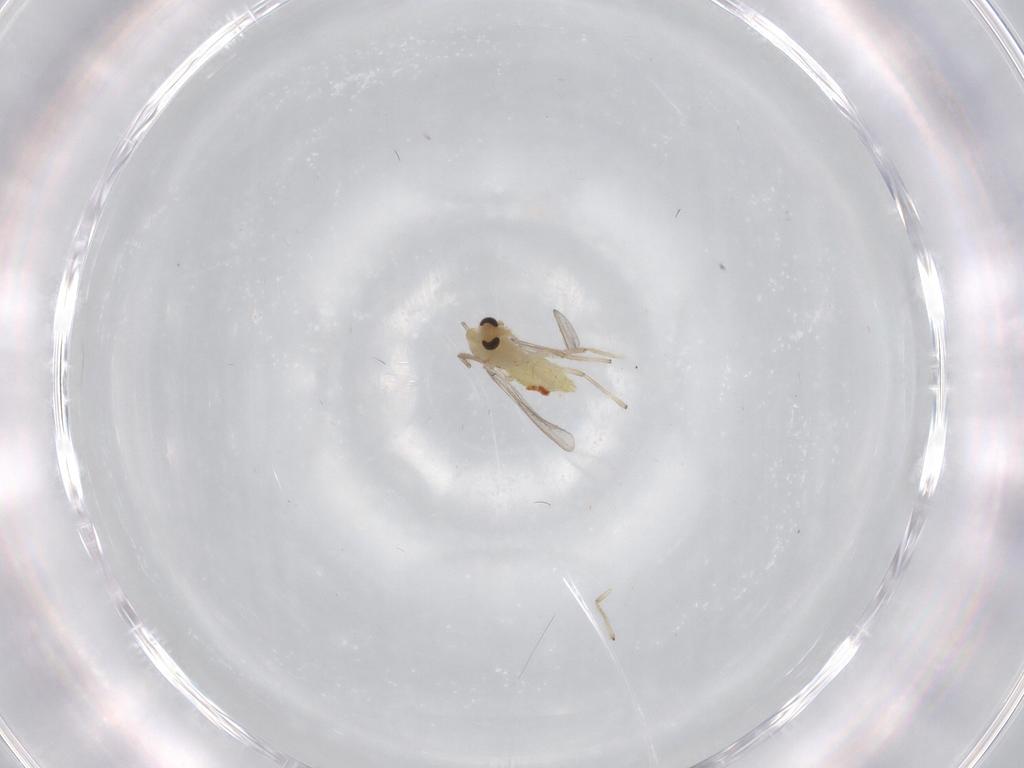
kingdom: Animalia
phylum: Arthropoda
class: Insecta
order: Diptera
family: Chironomidae
